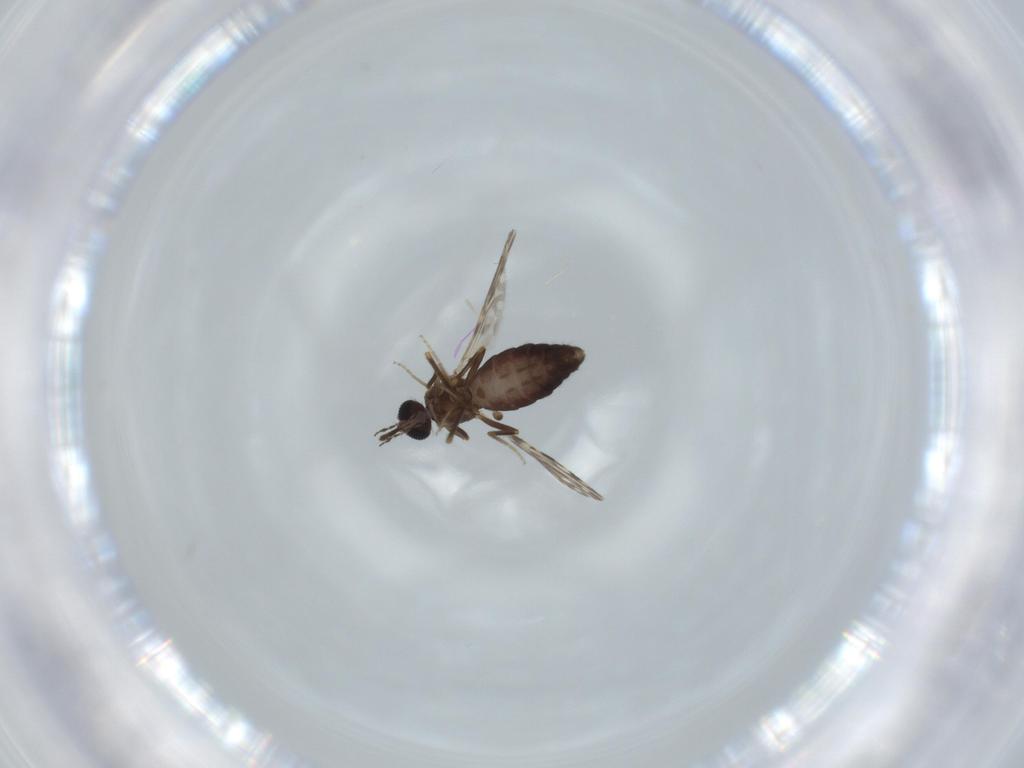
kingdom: Animalia
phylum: Arthropoda
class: Insecta
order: Diptera
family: Ceratopogonidae
